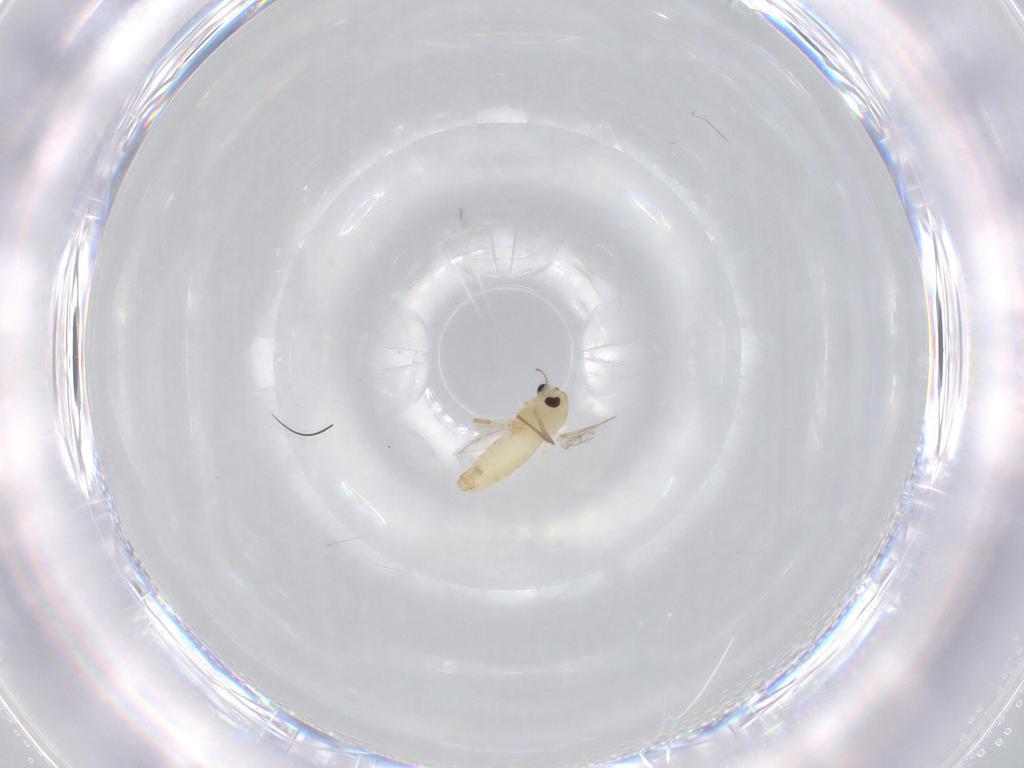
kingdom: Animalia
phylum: Arthropoda
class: Insecta
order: Diptera
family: Chironomidae
